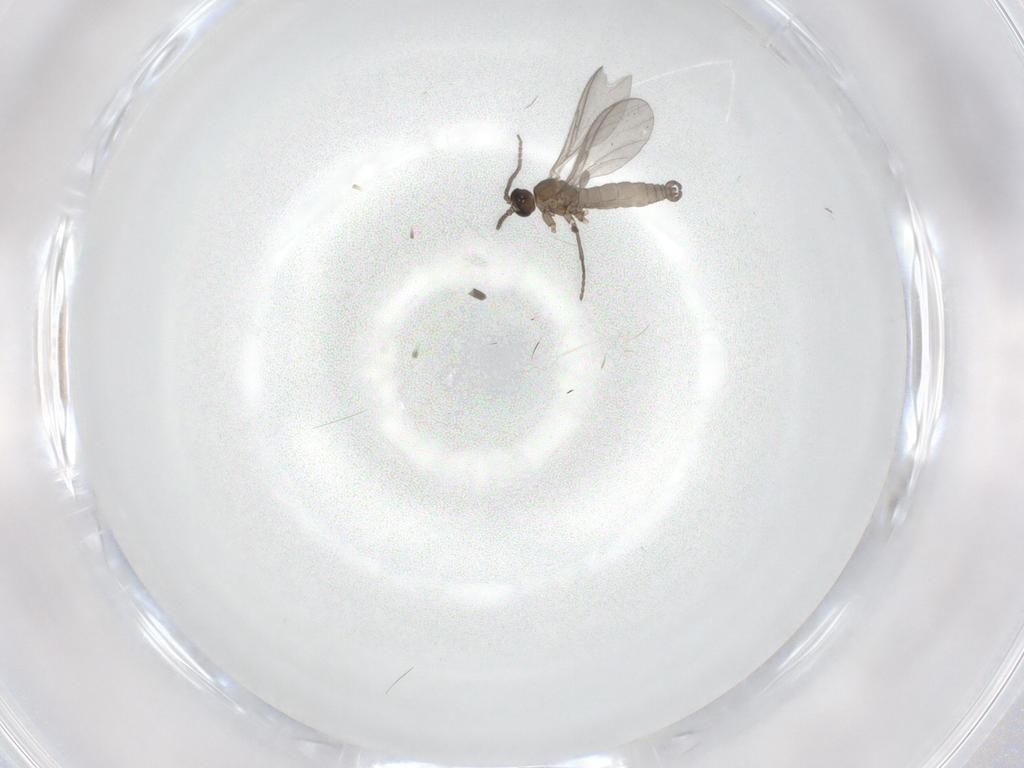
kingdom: Animalia
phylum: Arthropoda
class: Insecta
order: Diptera
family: Sciaridae
